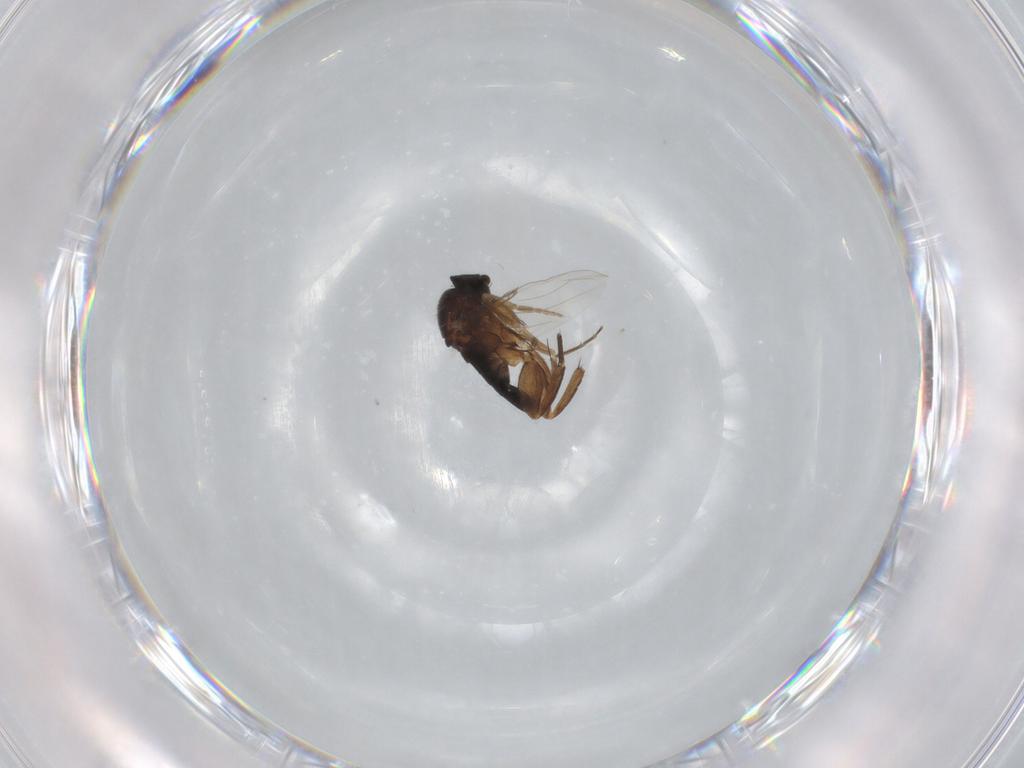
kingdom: Animalia
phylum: Arthropoda
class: Insecta
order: Diptera
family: Phoridae
